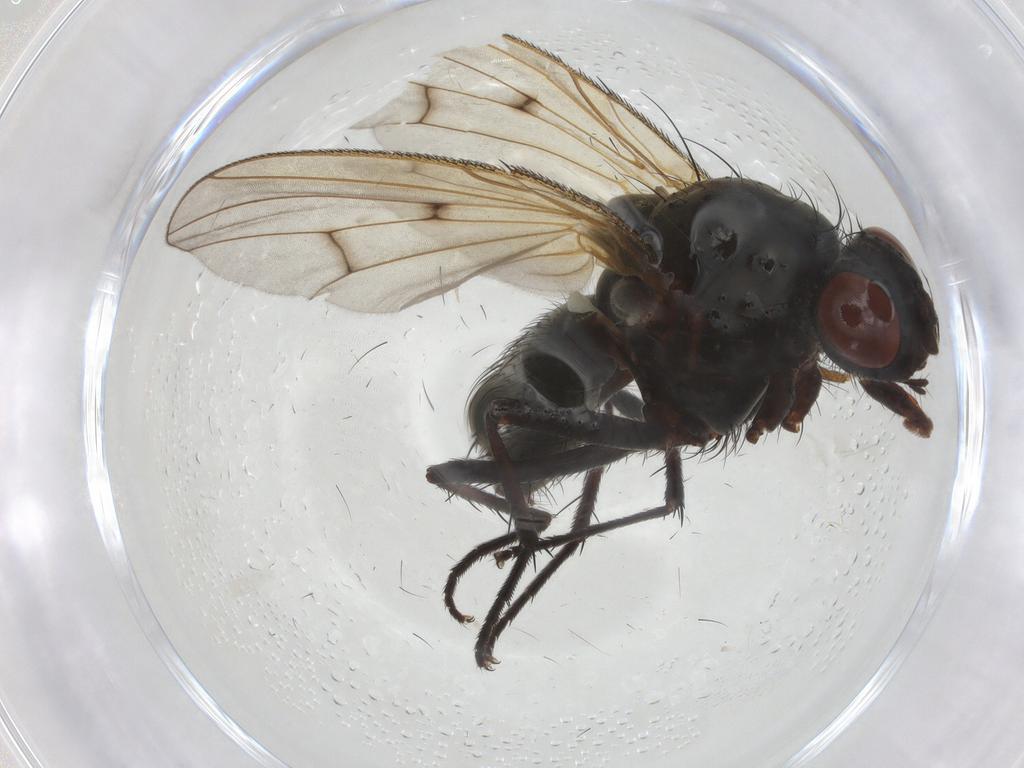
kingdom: Animalia
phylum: Arthropoda
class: Insecta
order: Diptera
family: Anthomyiidae
